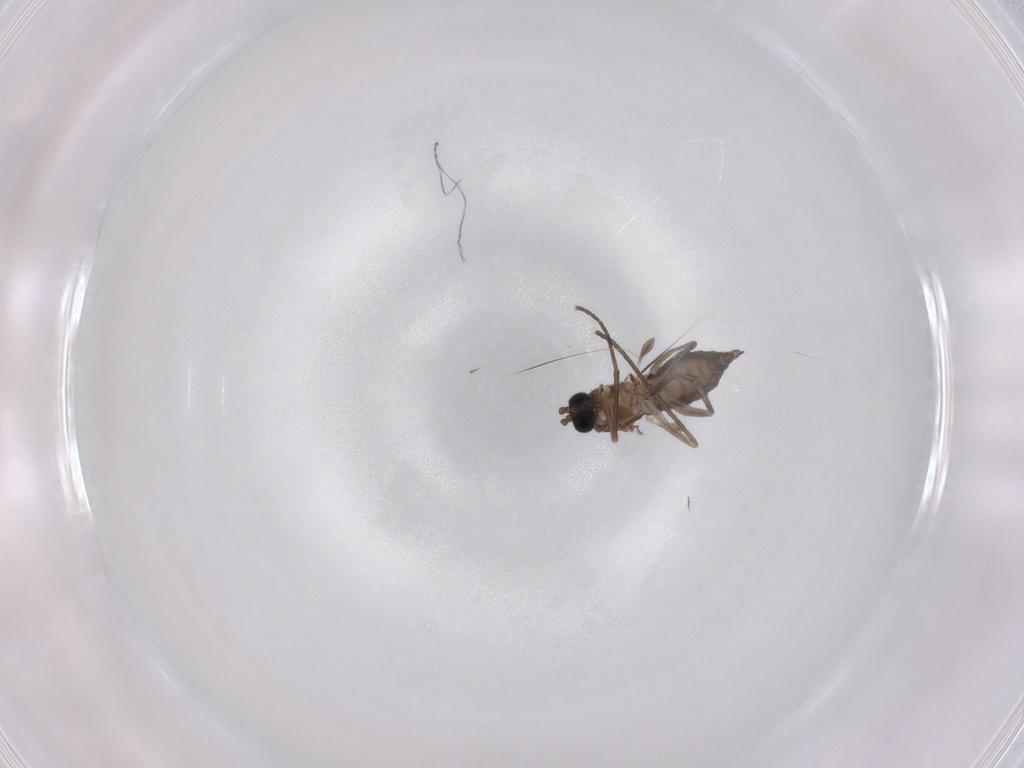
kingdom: Animalia
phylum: Arthropoda
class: Insecta
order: Diptera
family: Sciaridae
